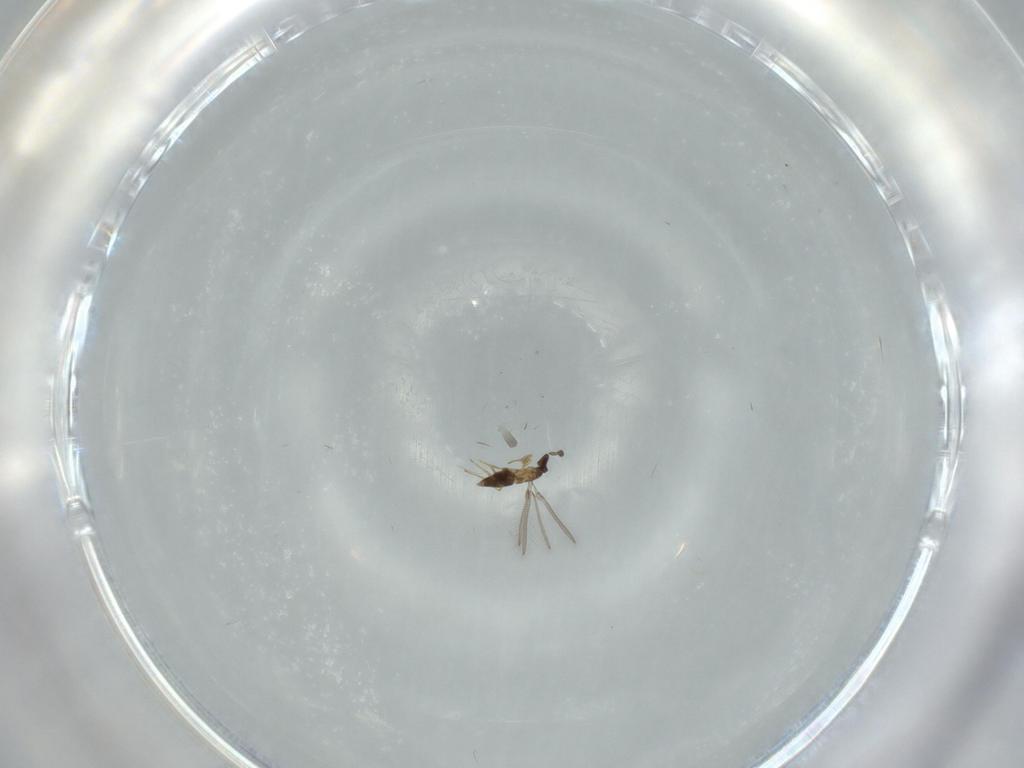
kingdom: Animalia
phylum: Arthropoda
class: Insecta
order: Hymenoptera
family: Mymaridae
